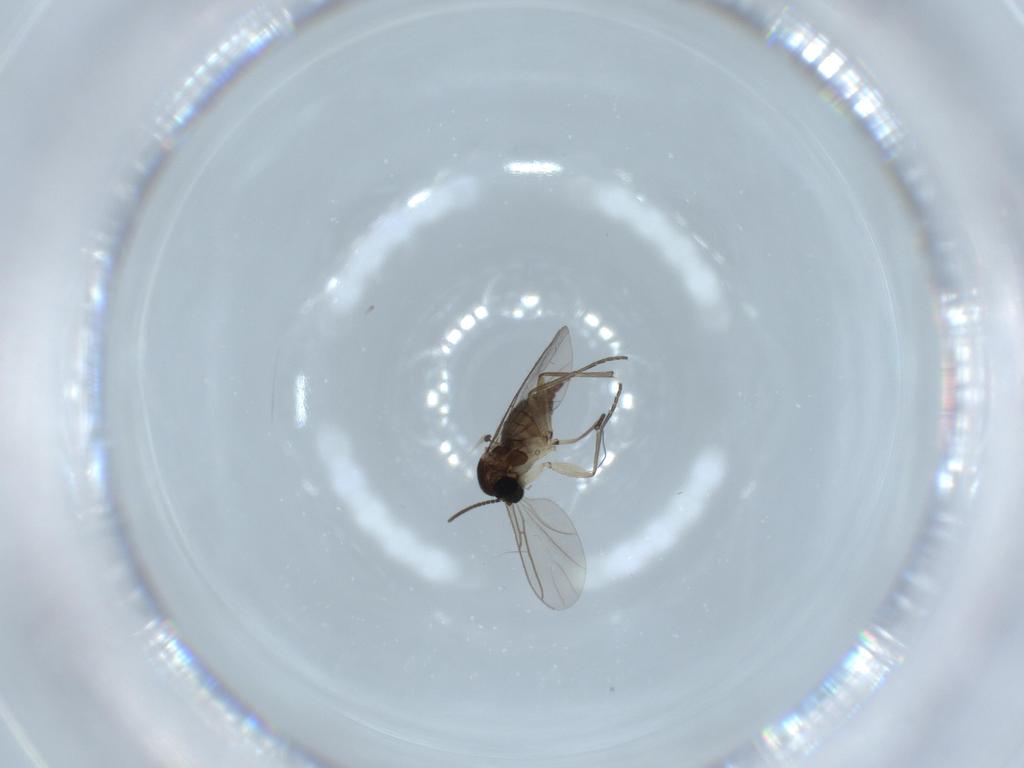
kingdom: Animalia
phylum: Arthropoda
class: Insecta
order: Diptera
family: Sciaridae
